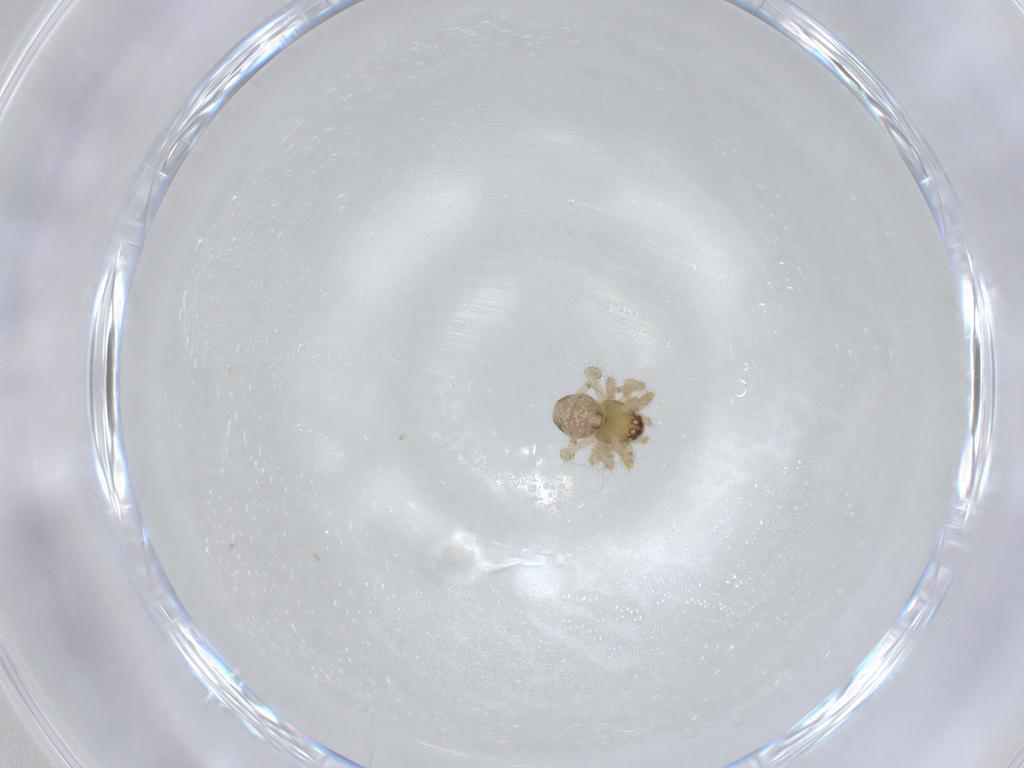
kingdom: Animalia
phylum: Arthropoda
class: Arachnida
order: Araneae
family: Theridiidae
